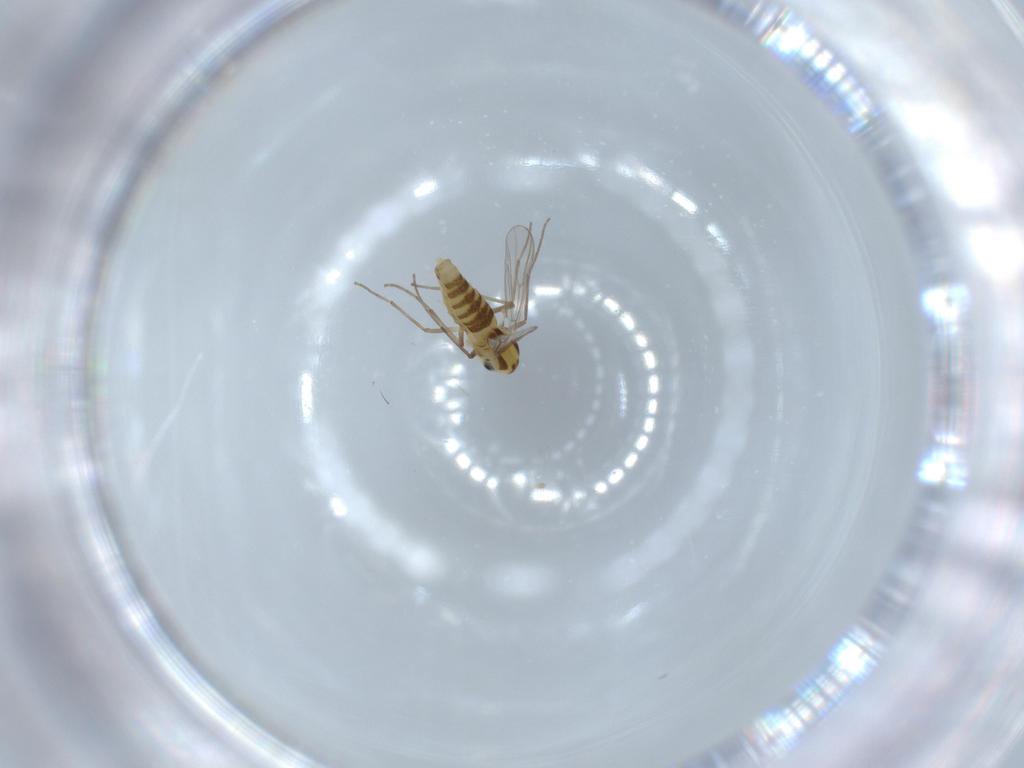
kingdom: Animalia
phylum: Arthropoda
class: Insecta
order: Diptera
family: Chironomidae
